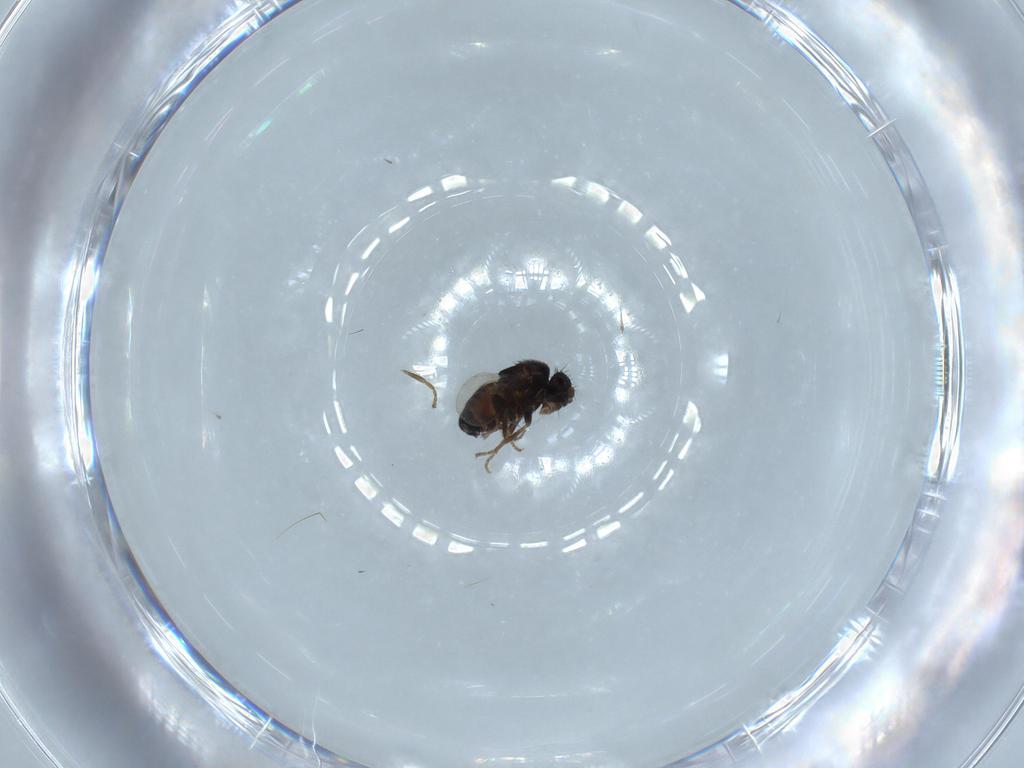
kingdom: Animalia
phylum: Arthropoda
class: Insecta
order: Diptera
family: Sphaeroceridae
